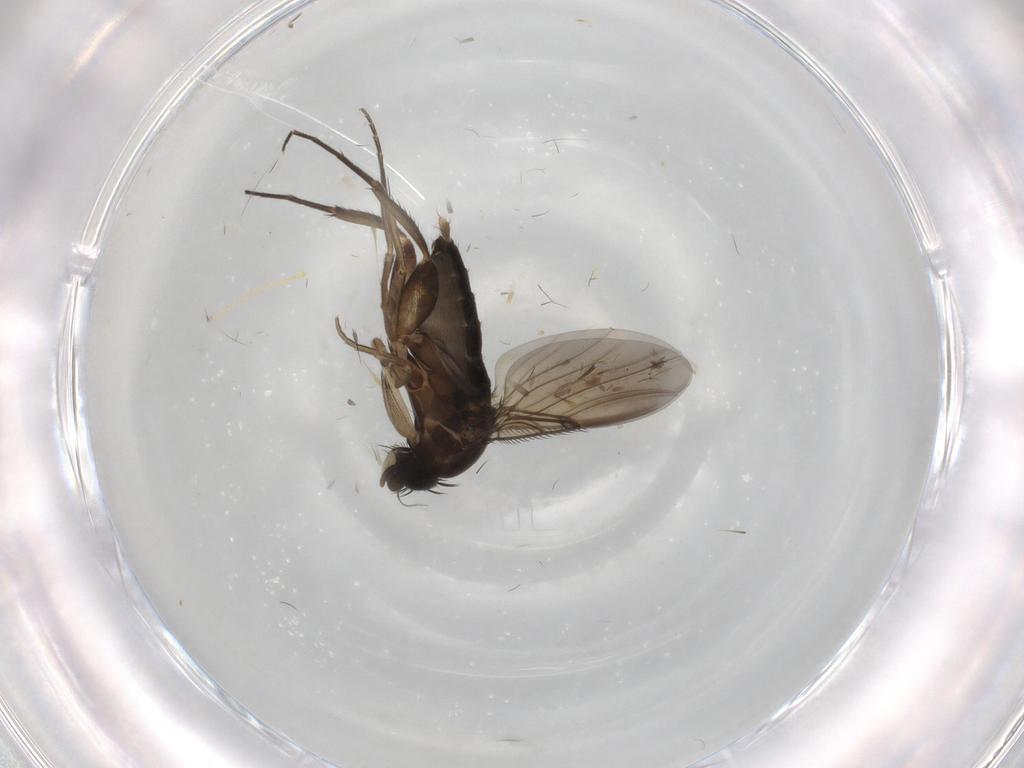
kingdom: Animalia
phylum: Arthropoda
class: Insecta
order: Diptera
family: Phoridae
